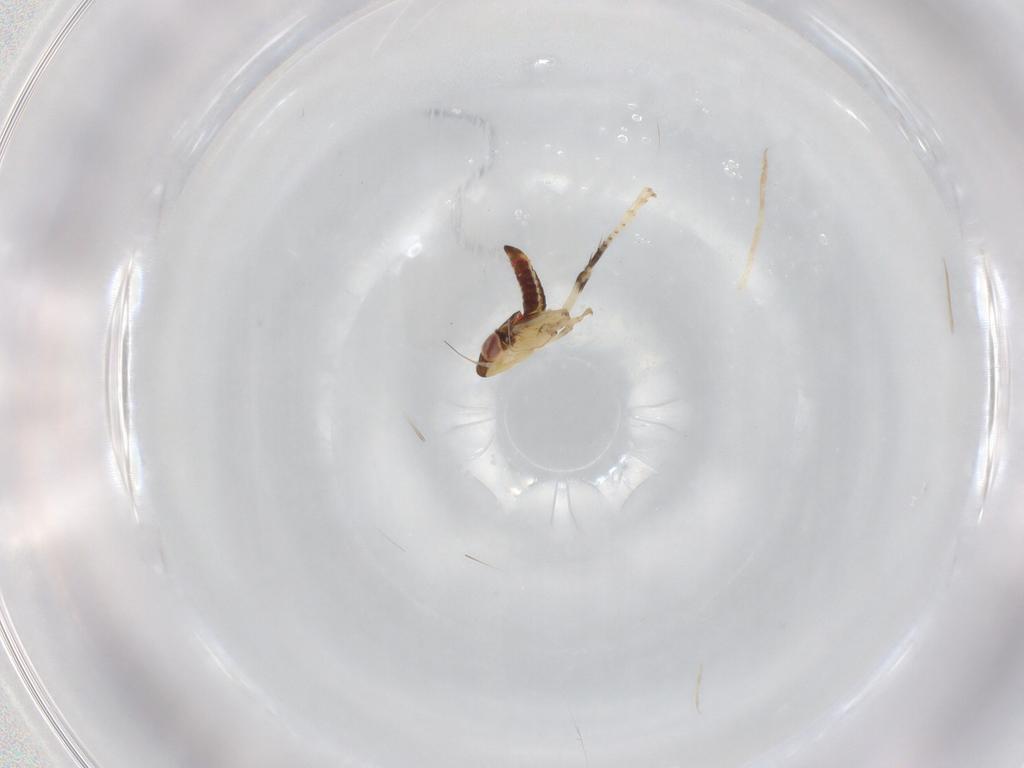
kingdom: Animalia
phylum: Arthropoda
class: Insecta
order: Hemiptera
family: Cicadellidae
